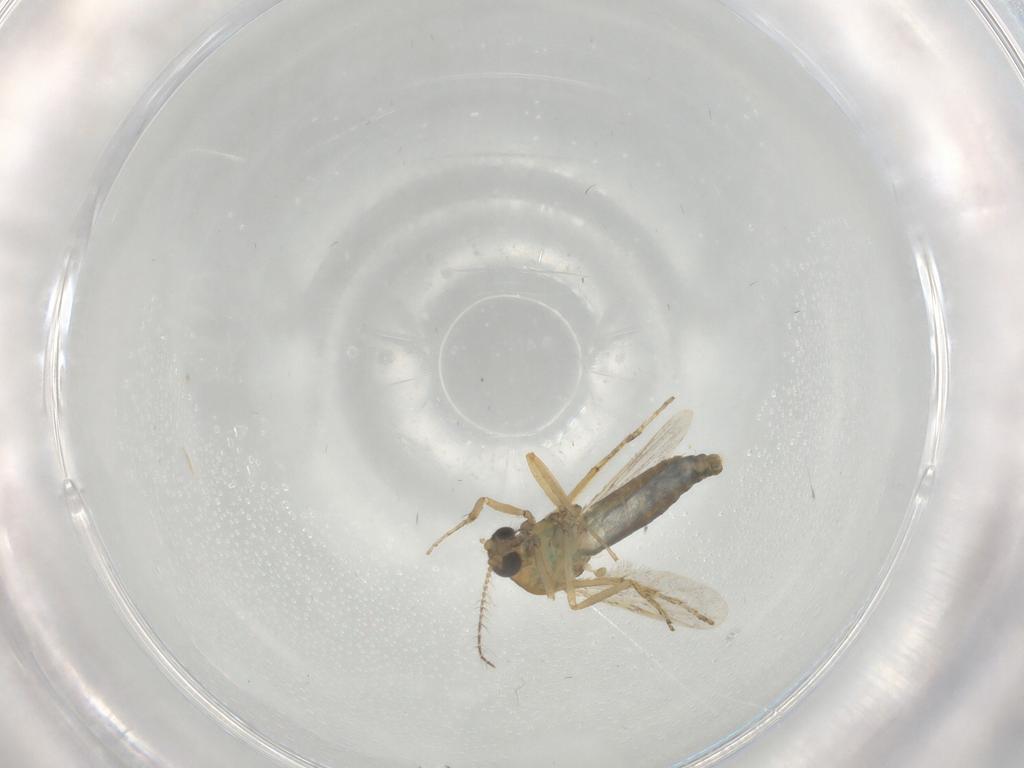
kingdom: Animalia
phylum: Arthropoda
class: Insecta
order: Diptera
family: Ceratopogonidae
